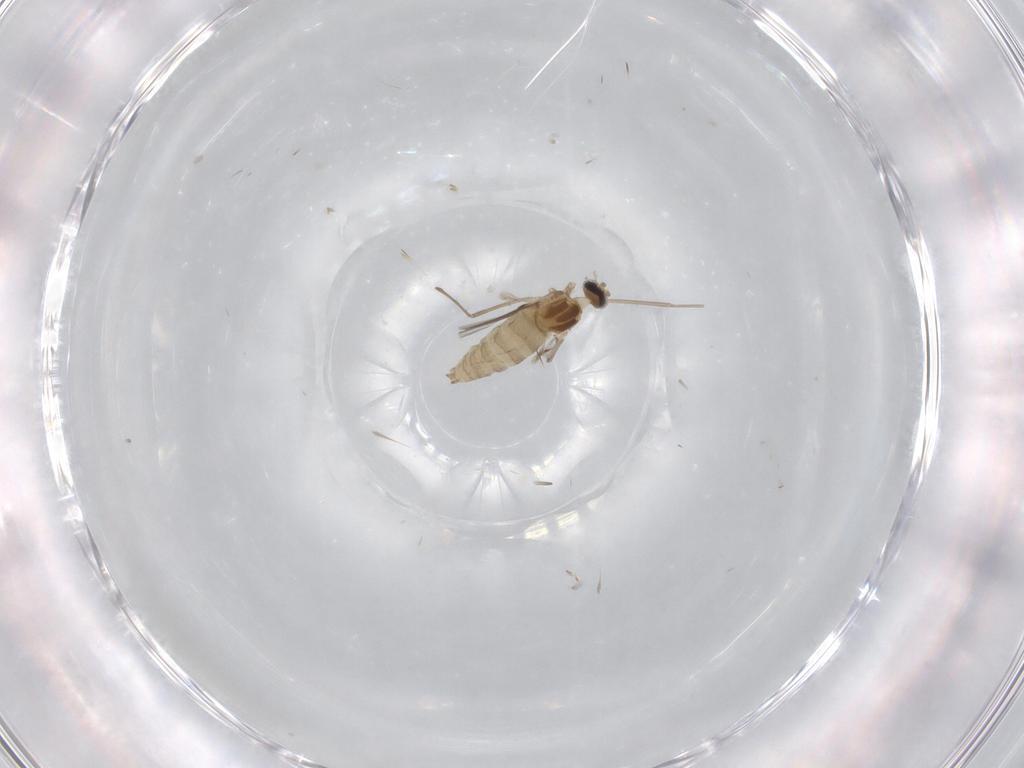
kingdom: Animalia
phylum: Arthropoda
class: Insecta
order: Diptera
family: Cecidomyiidae
